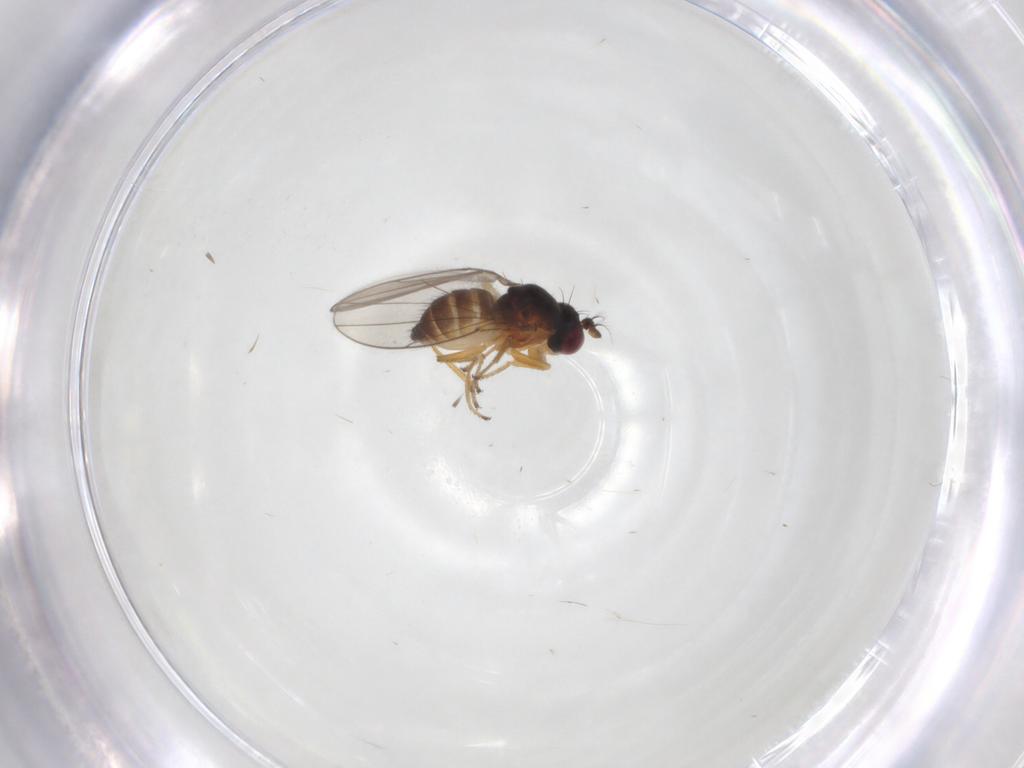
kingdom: Animalia
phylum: Arthropoda
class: Insecta
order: Diptera
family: Ephydridae
